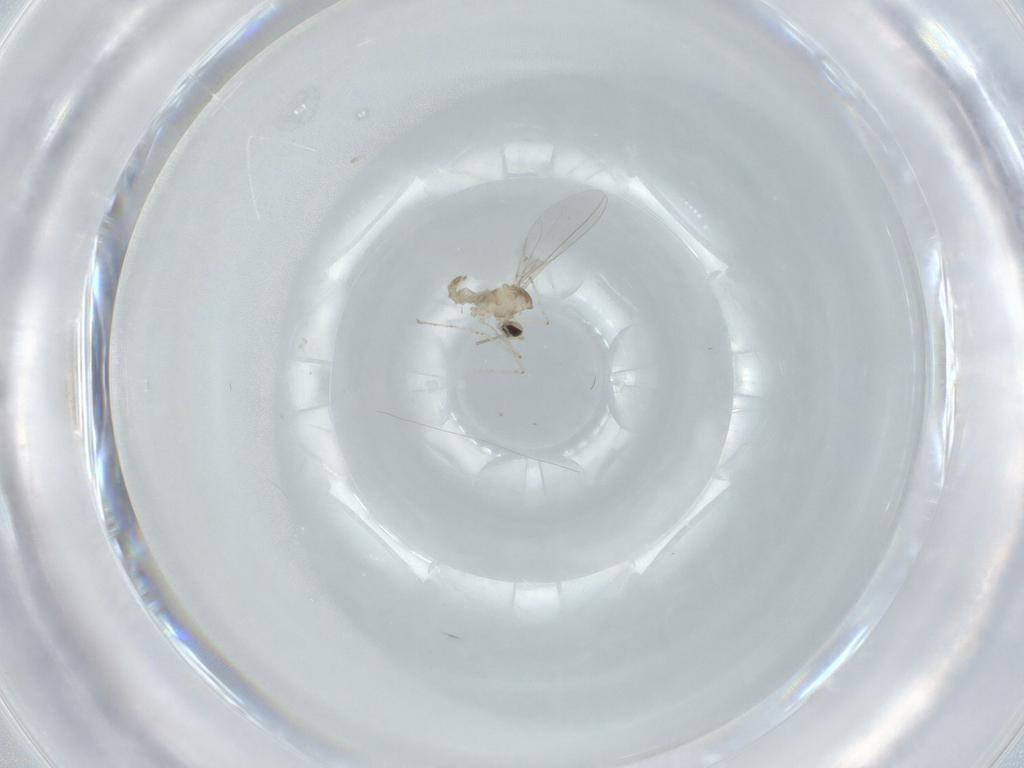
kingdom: Animalia
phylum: Arthropoda
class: Insecta
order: Diptera
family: Cecidomyiidae
